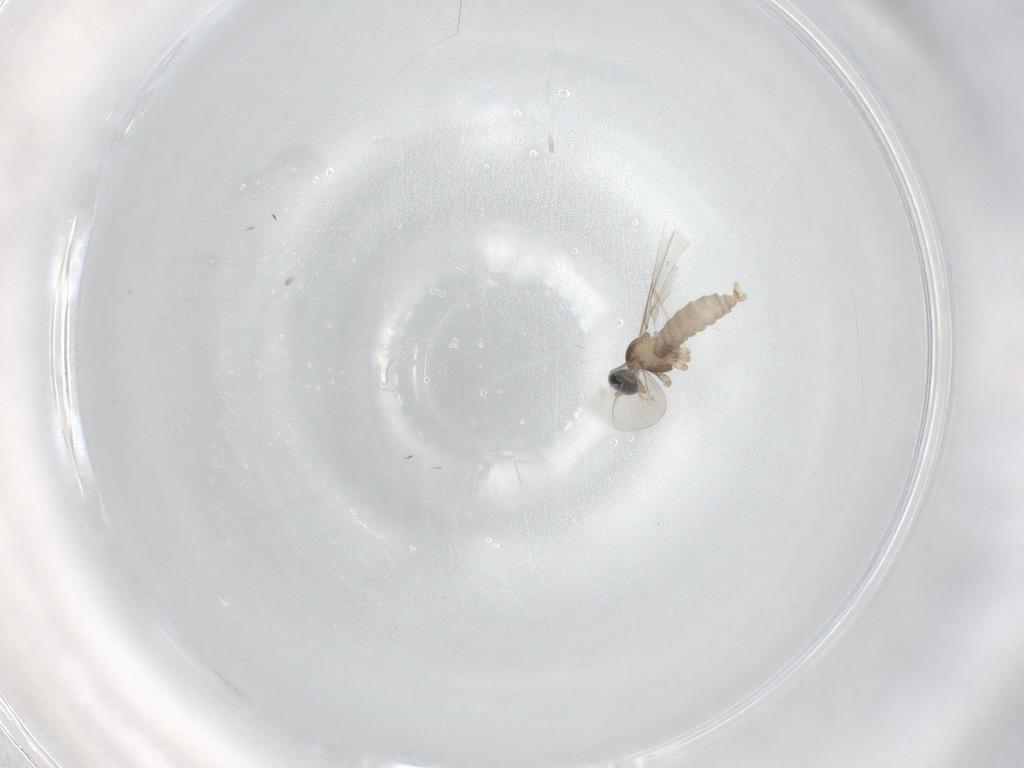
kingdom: Animalia
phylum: Arthropoda
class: Insecta
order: Diptera
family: Cecidomyiidae
